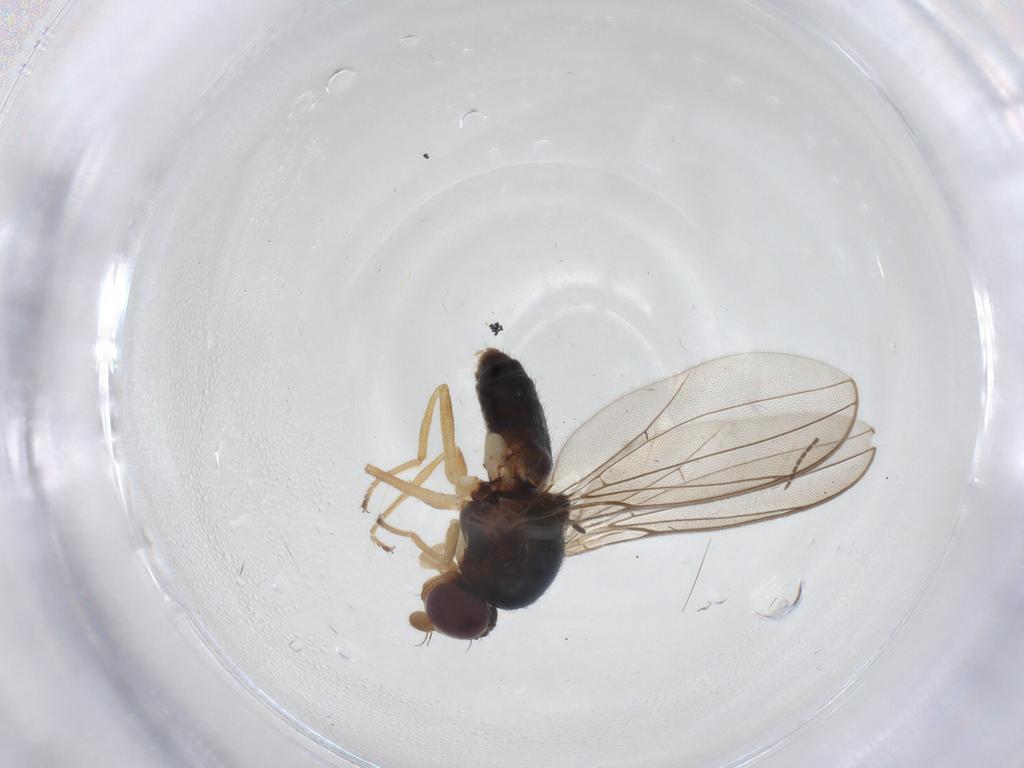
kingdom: Animalia
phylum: Arthropoda
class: Insecta
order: Diptera
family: Asteiidae
